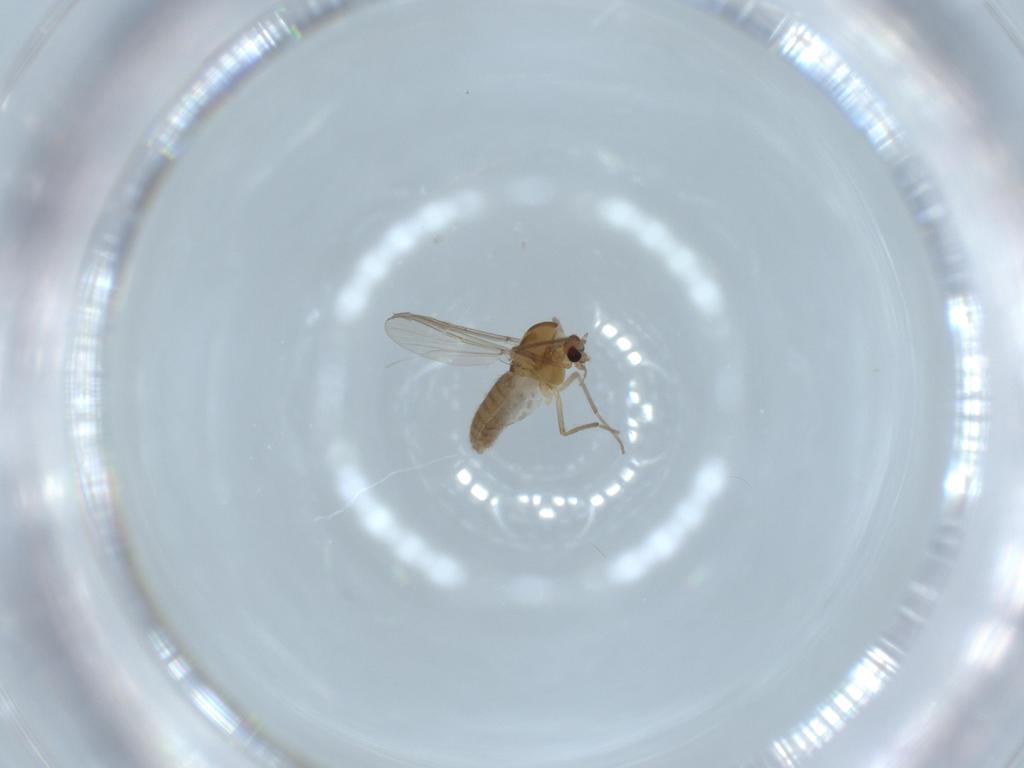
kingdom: Animalia
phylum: Arthropoda
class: Insecta
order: Diptera
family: Chironomidae
